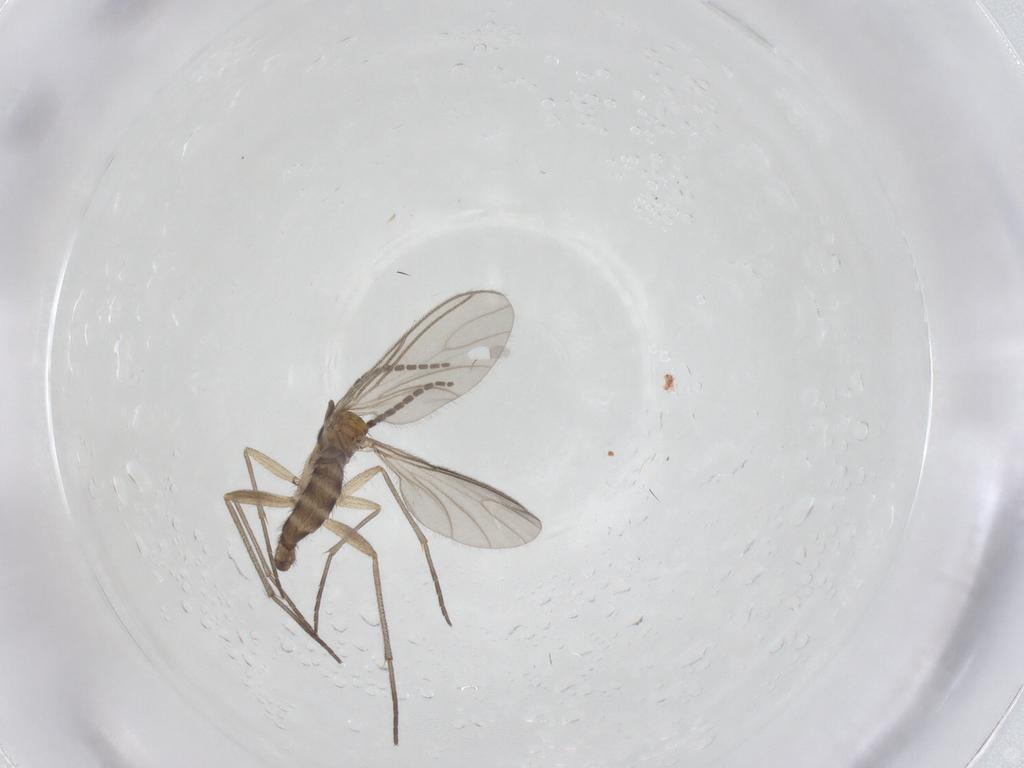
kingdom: Animalia
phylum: Arthropoda
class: Insecta
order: Diptera
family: Sciaridae
